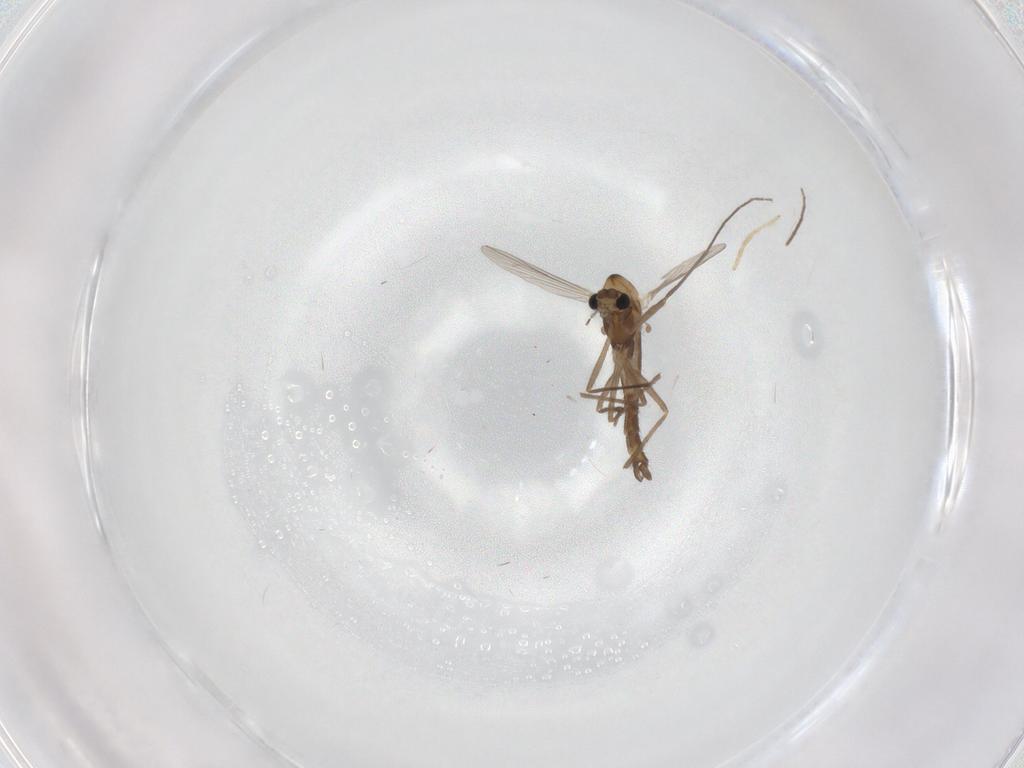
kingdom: Animalia
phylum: Arthropoda
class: Insecta
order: Diptera
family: Chironomidae
